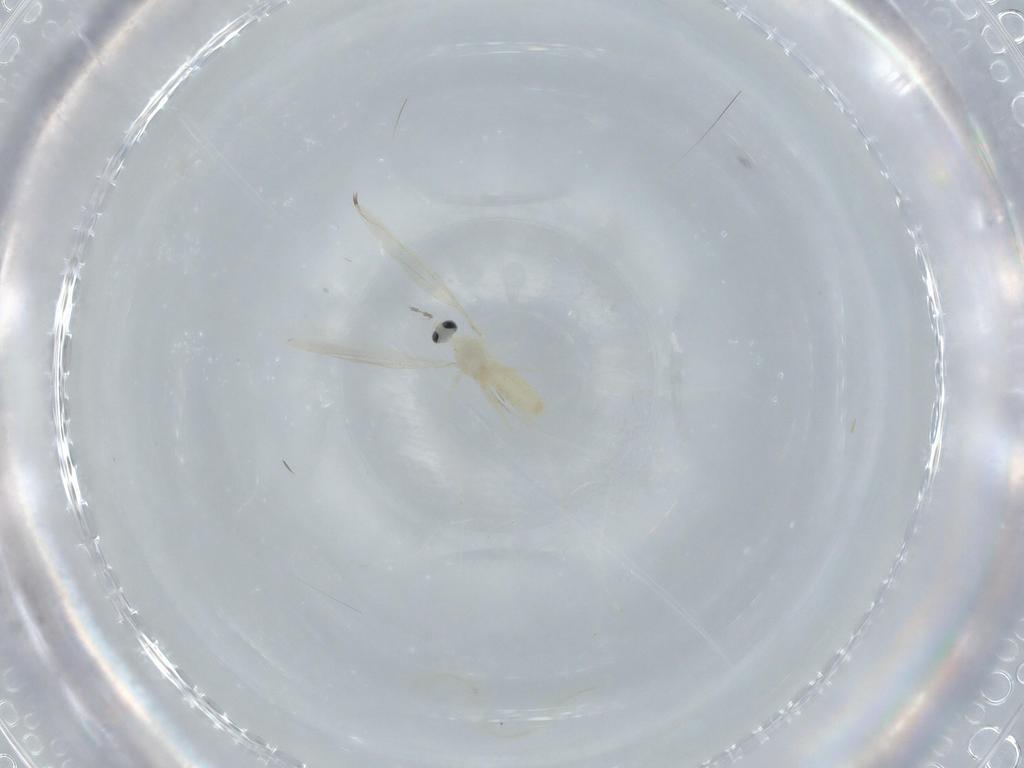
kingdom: Animalia
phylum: Arthropoda
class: Insecta
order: Diptera
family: Cecidomyiidae
